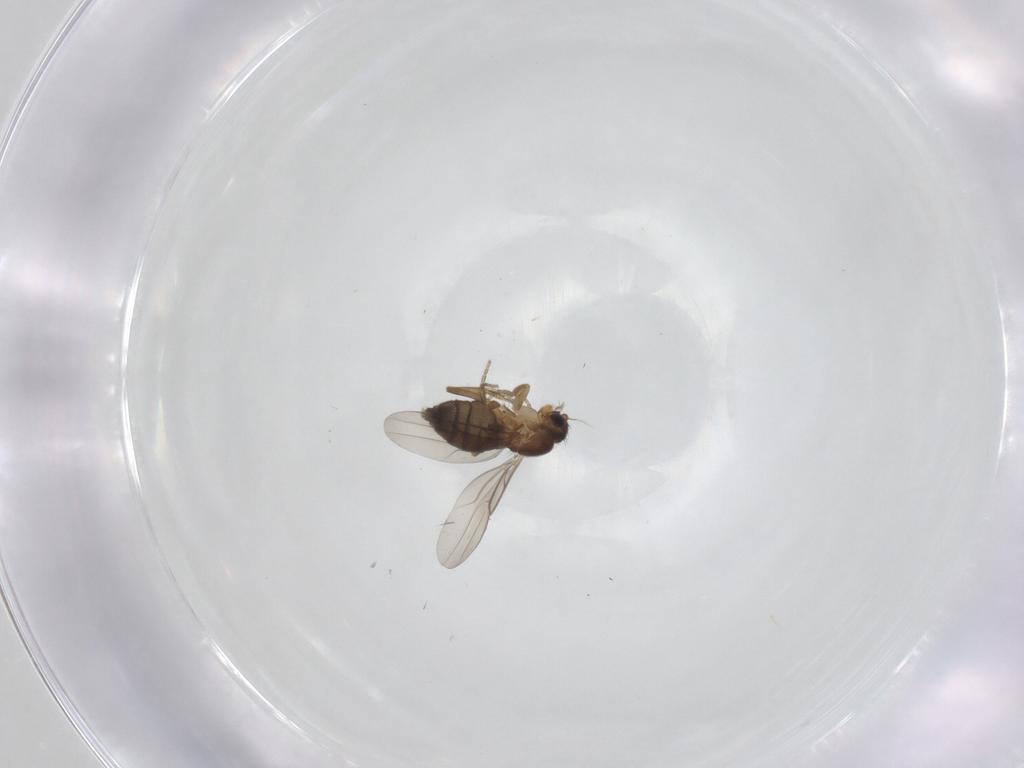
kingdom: Animalia
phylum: Arthropoda
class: Insecta
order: Diptera
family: Phoridae
